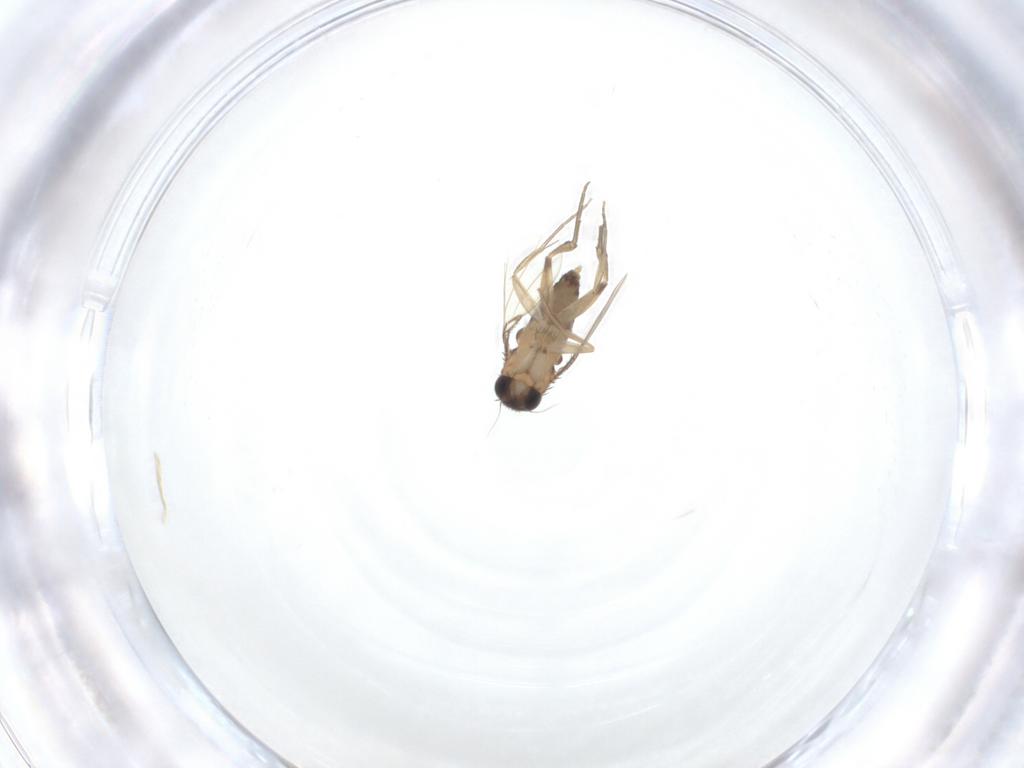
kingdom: Animalia
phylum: Arthropoda
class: Insecta
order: Diptera
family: Phoridae
